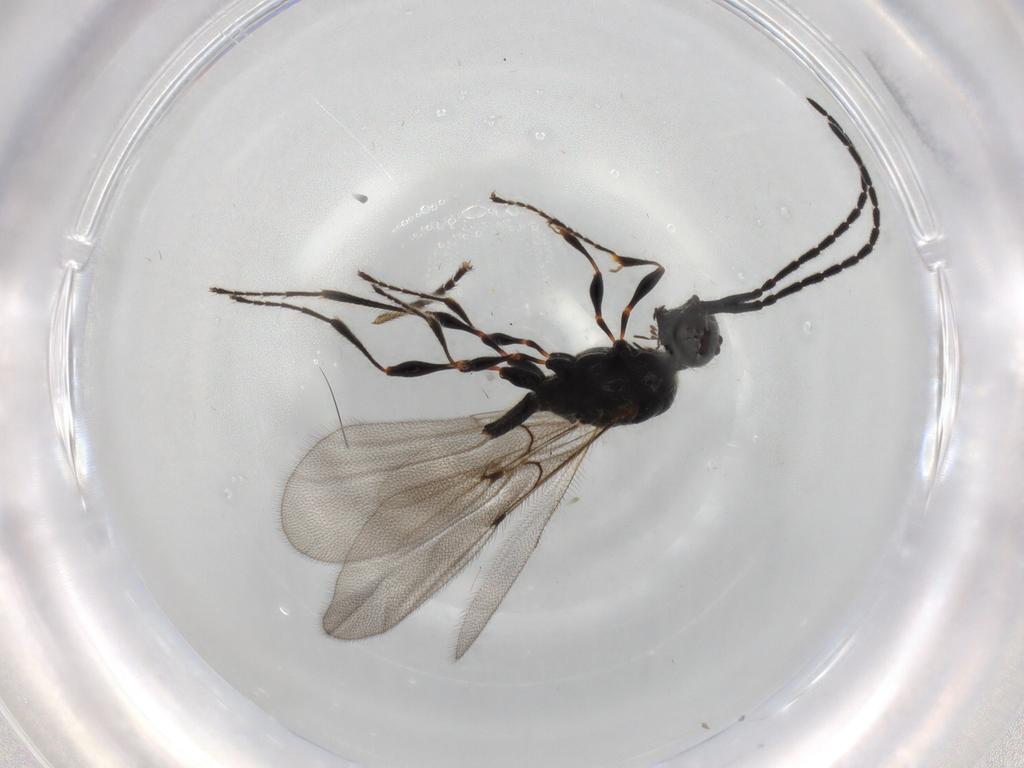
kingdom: Animalia
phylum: Arthropoda
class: Insecta
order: Hymenoptera
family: Diapriidae
